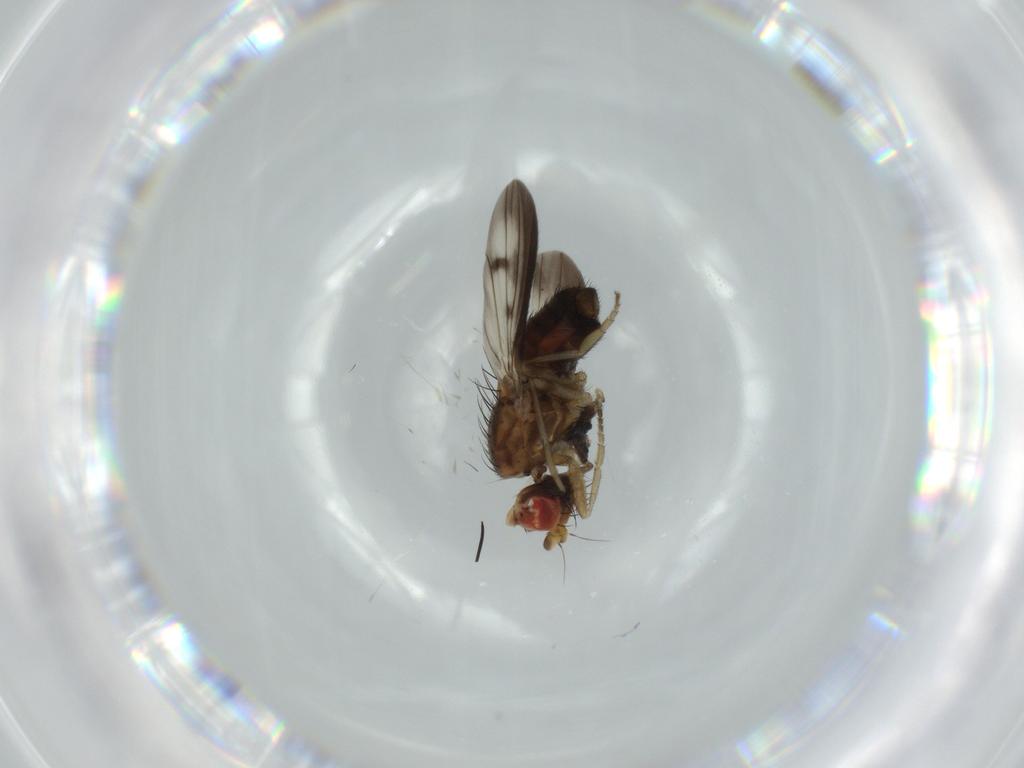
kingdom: Animalia
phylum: Arthropoda
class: Insecta
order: Diptera
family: Heleomyzidae
